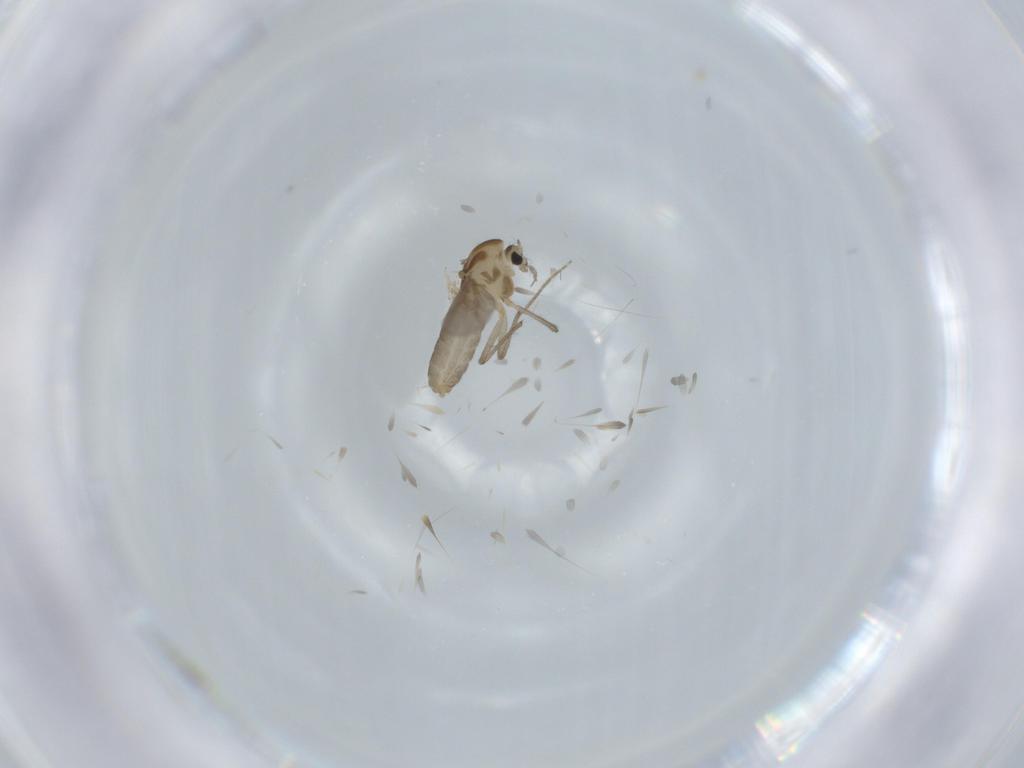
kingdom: Animalia
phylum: Arthropoda
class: Insecta
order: Diptera
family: Chironomidae
